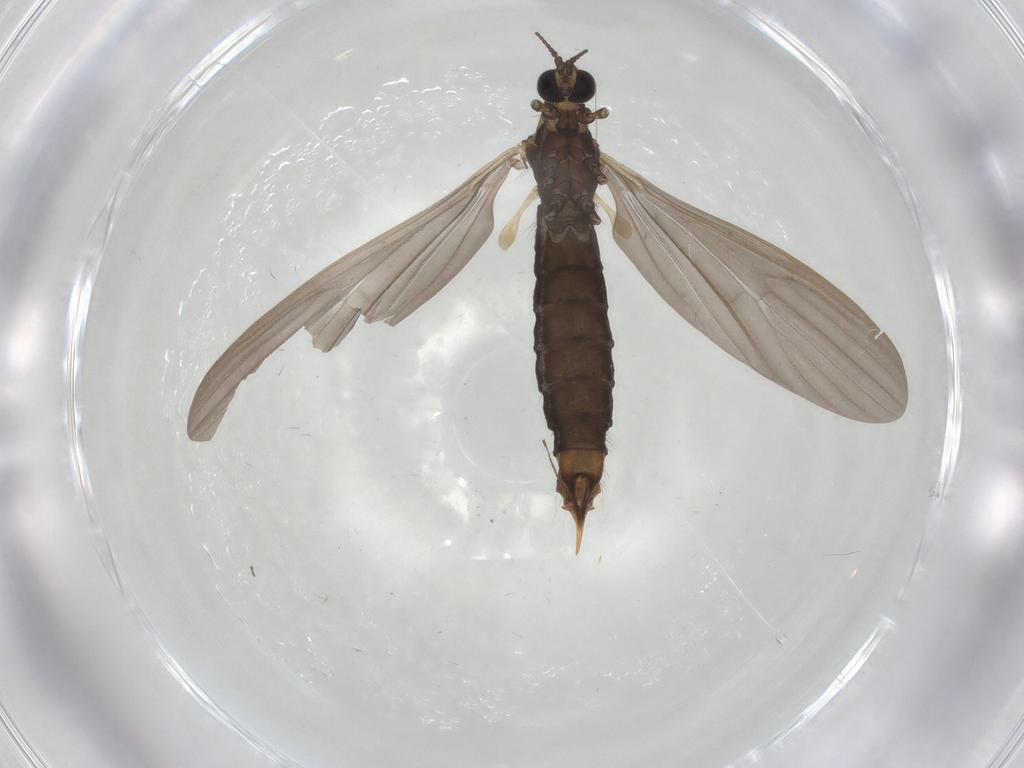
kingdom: Animalia
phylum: Arthropoda
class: Insecta
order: Diptera
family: Limoniidae
